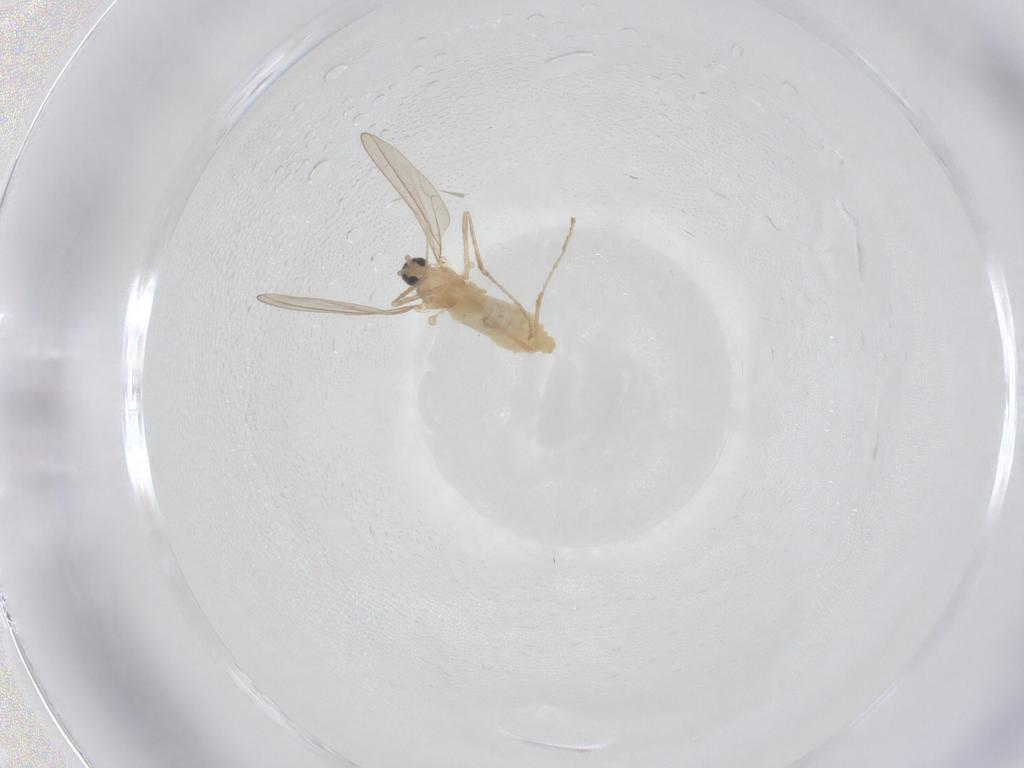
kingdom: Animalia
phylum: Arthropoda
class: Insecta
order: Diptera
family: Cecidomyiidae
